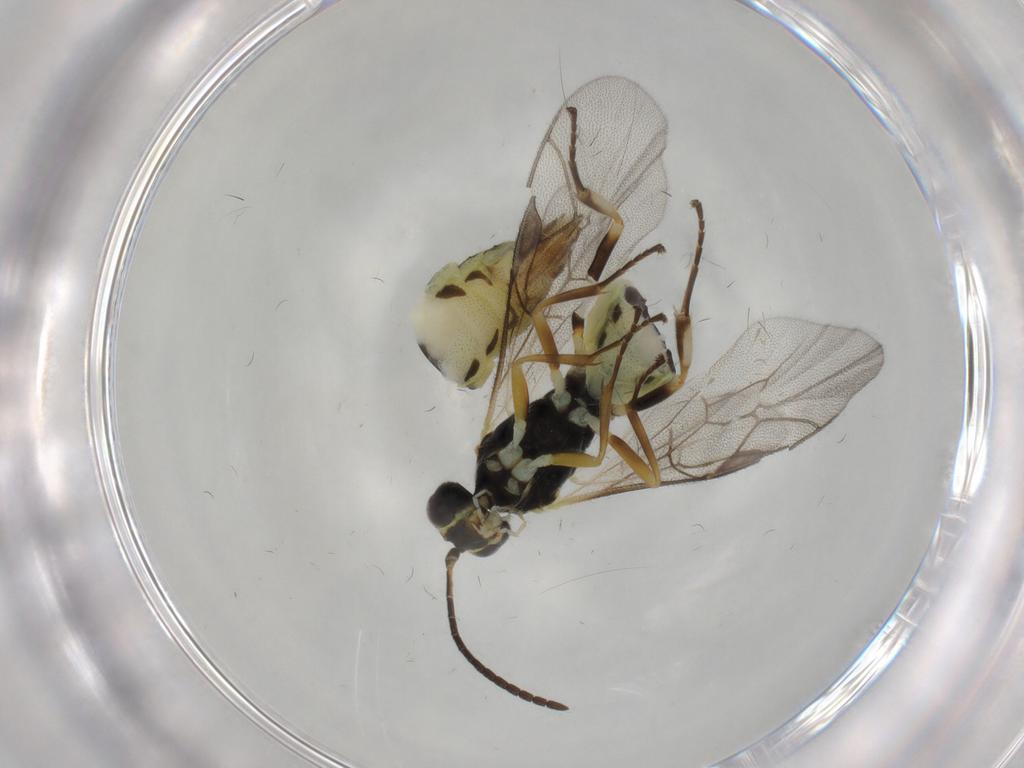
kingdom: Animalia
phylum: Arthropoda
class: Insecta
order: Hymenoptera
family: Ichneumonidae
